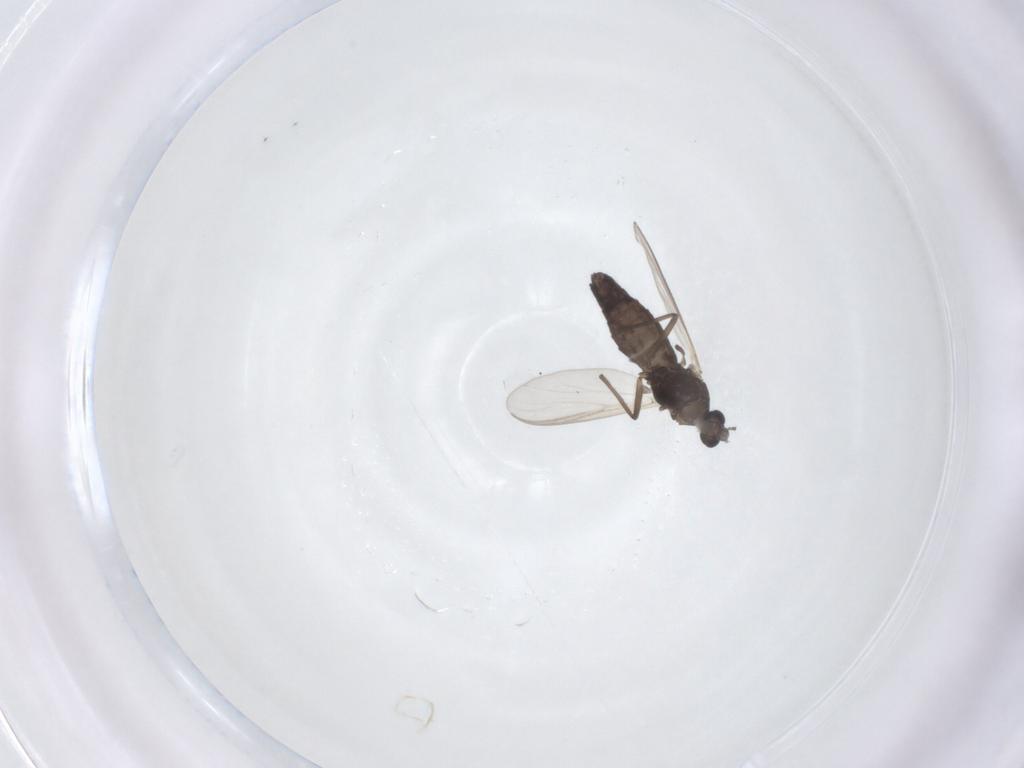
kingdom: Animalia
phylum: Arthropoda
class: Insecta
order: Diptera
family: Chironomidae
